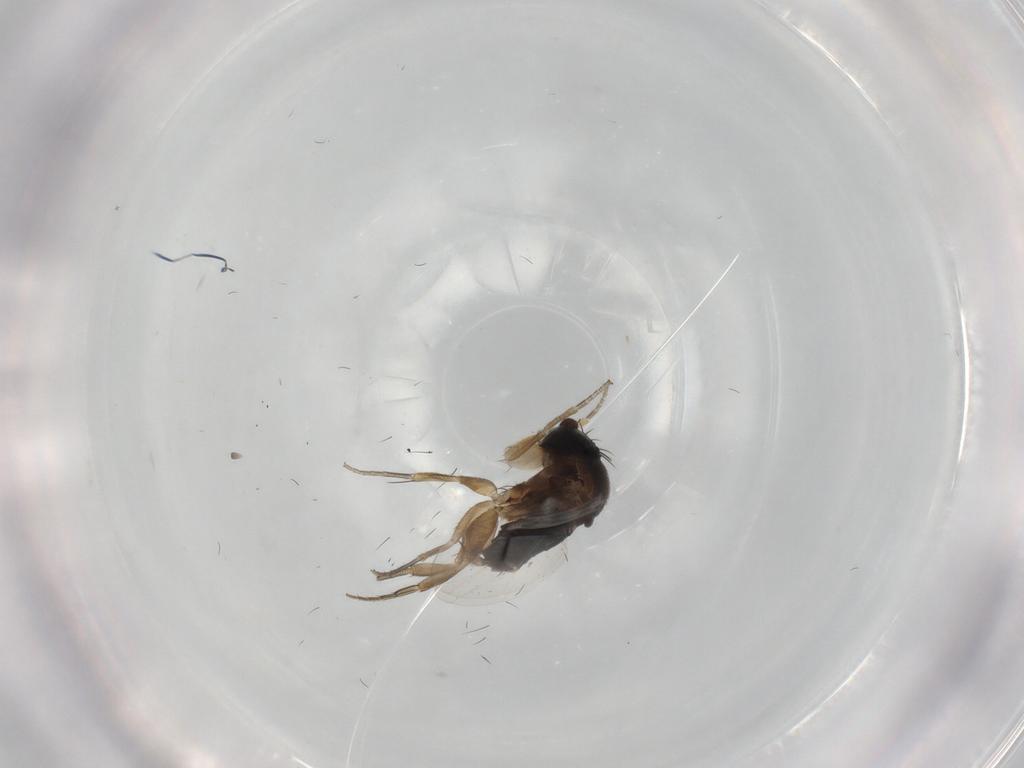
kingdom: Animalia
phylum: Arthropoda
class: Insecta
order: Diptera
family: Chironomidae
